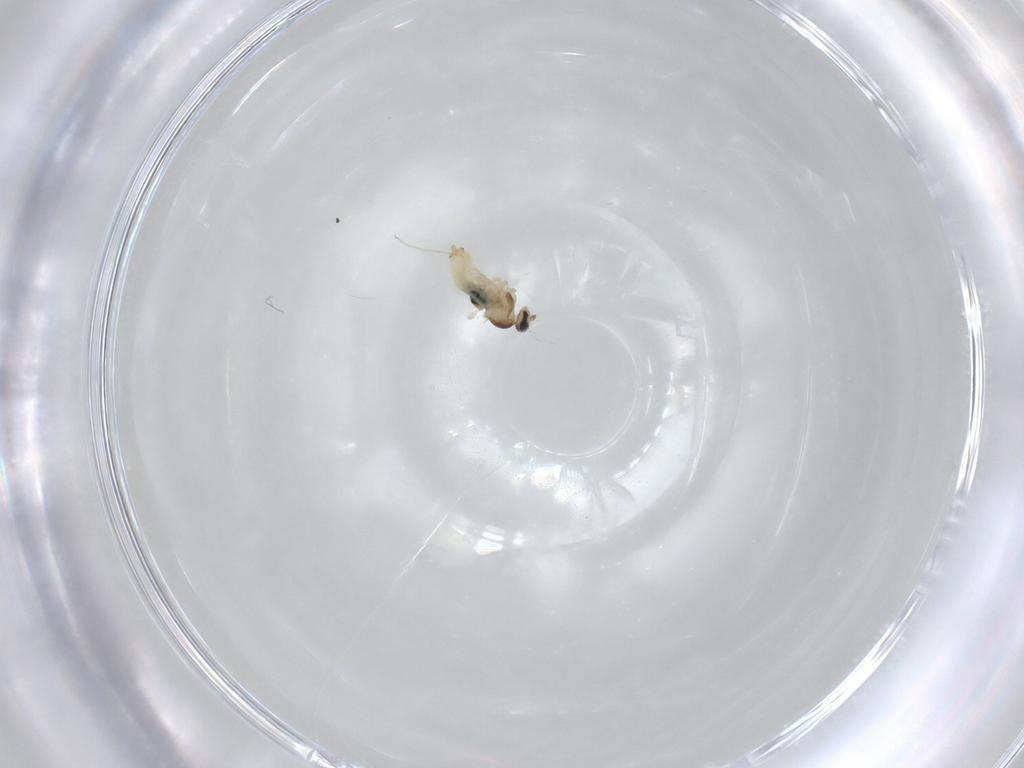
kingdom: Animalia
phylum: Arthropoda
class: Insecta
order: Diptera
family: Cecidomyiidae
